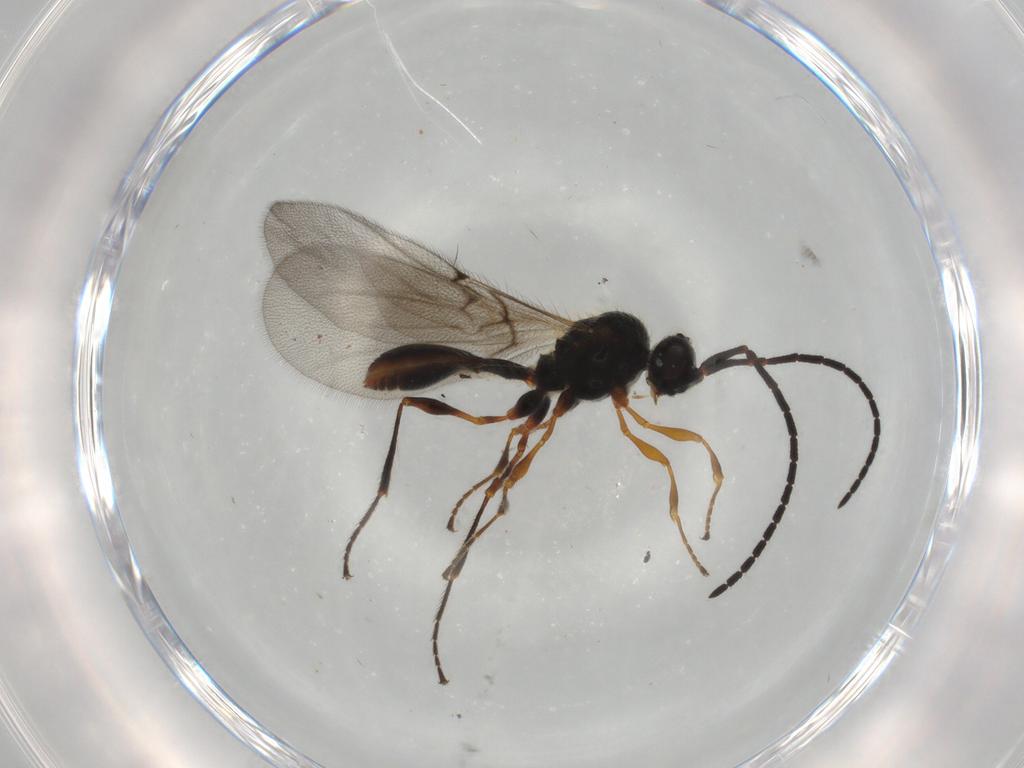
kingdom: Animalia
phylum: Arthropoda
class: Insecta
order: Hymenoptera
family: Diapriidae
